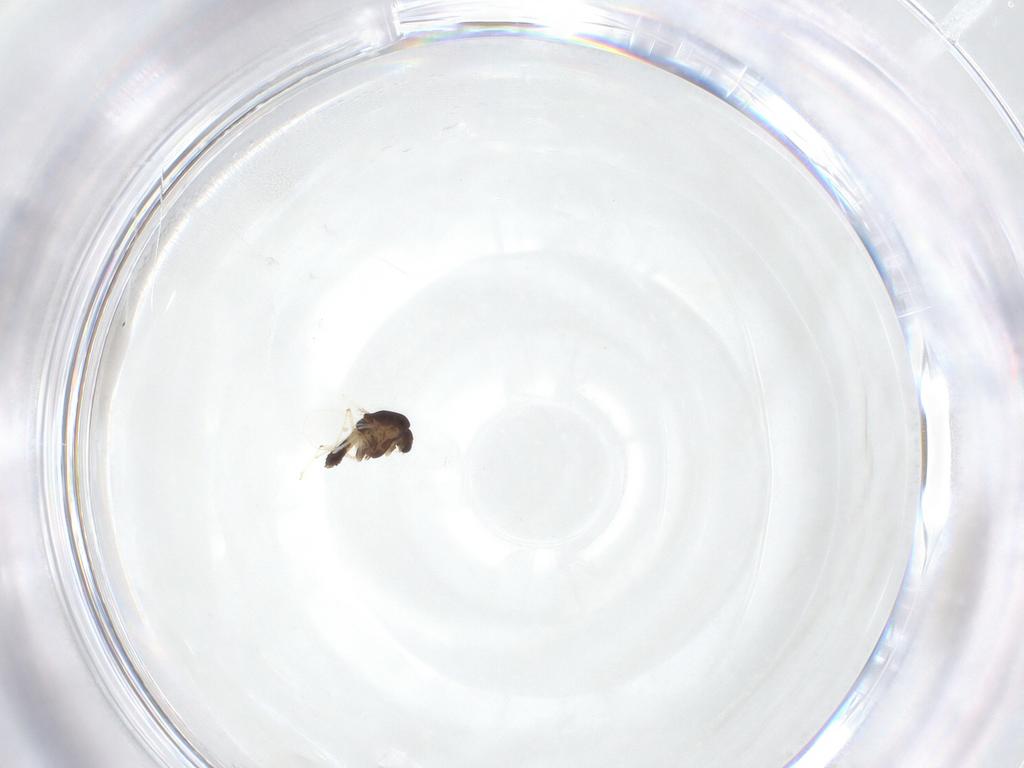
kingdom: Animalia
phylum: Arthropoda
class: Insecta
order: Diptera
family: Chironomidae
